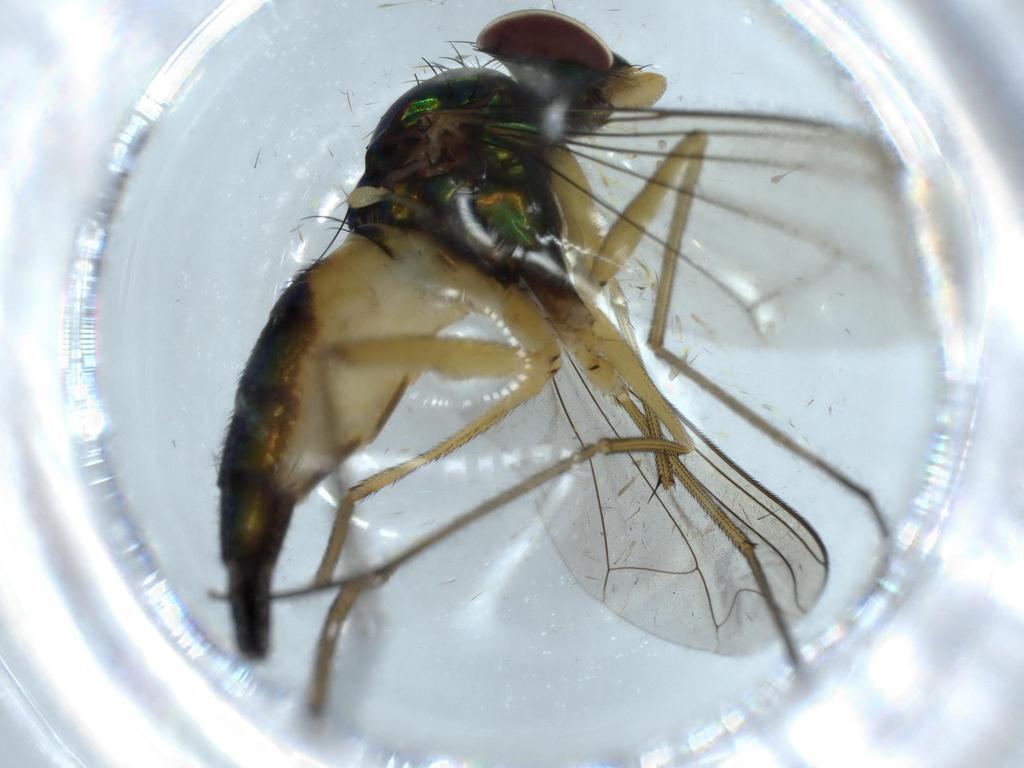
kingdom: Animalia
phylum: Arthropoda
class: Insecta
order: Diptera
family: Dolichopodidae
